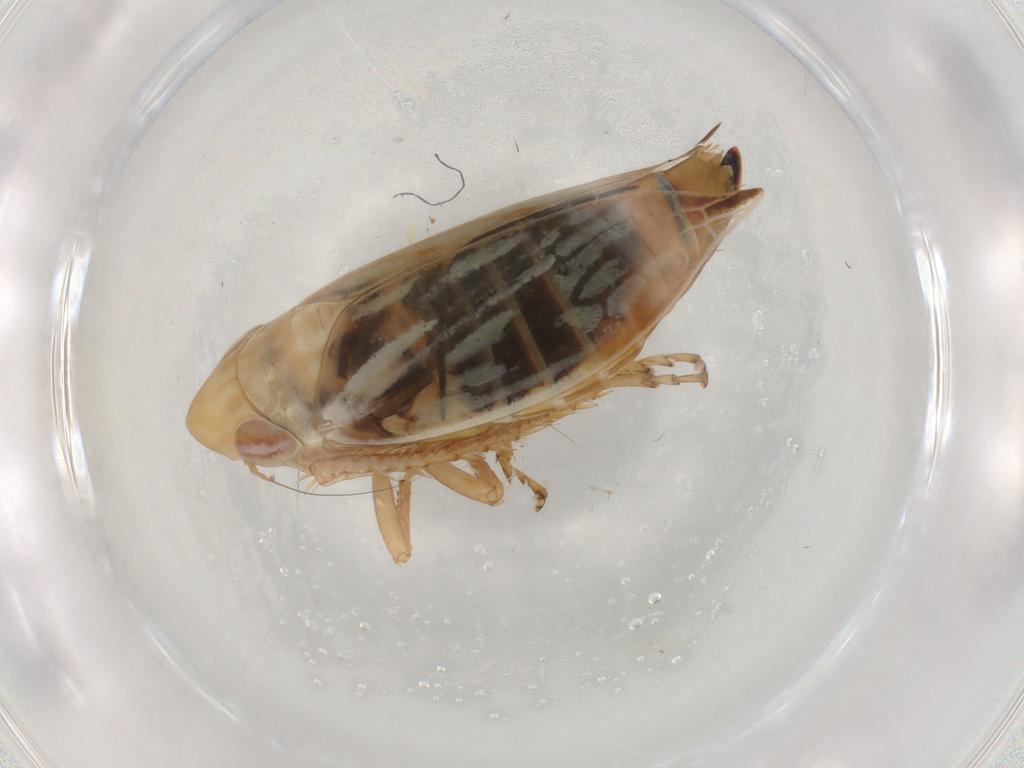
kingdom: Animalia
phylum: Arthropoda
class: Insecta
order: Hemiptera
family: Cicadellidae
